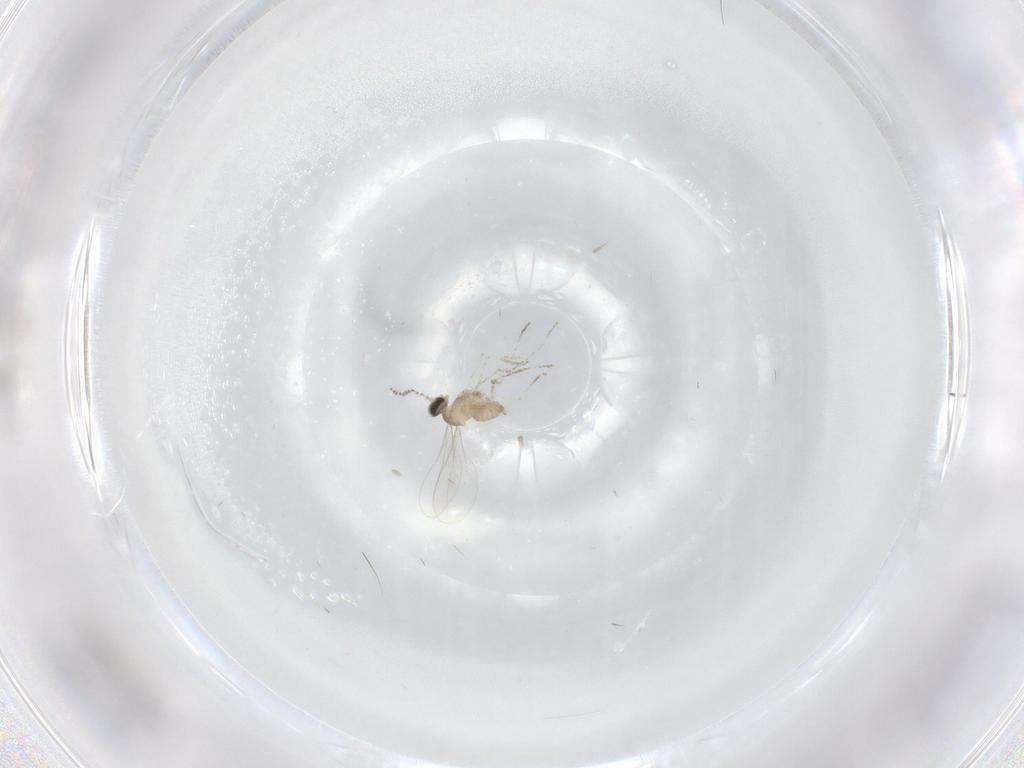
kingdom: Animalia
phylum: Arthropoda
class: Insecta
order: Diptera
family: Cecidomyiidae
